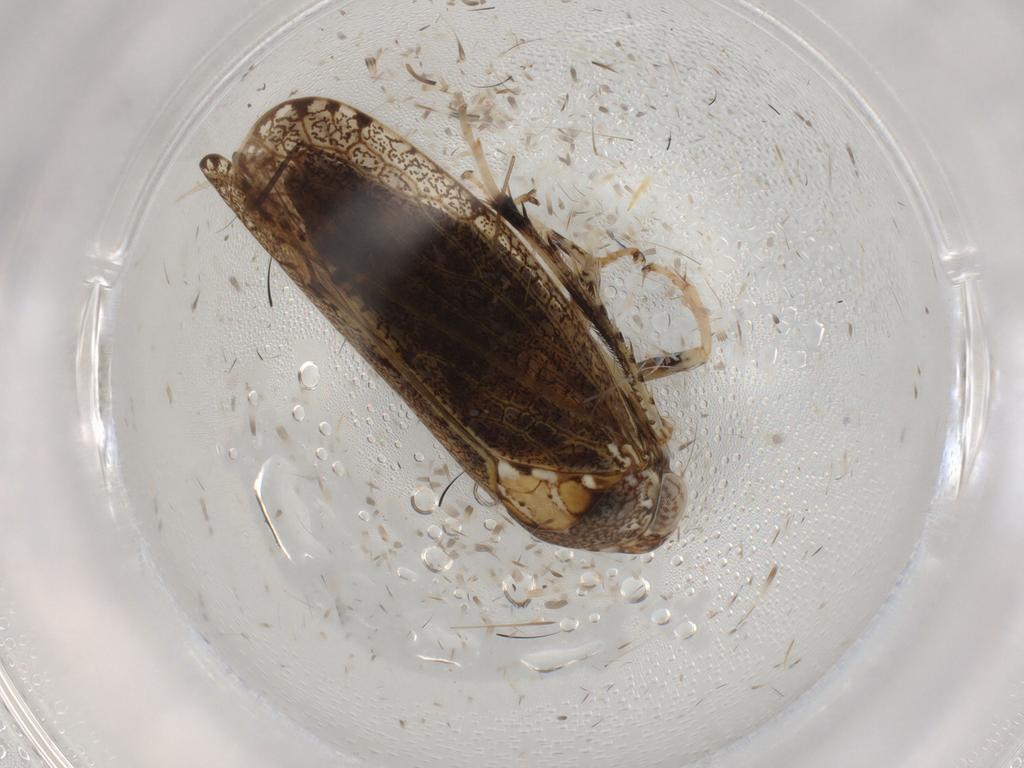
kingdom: Animalia
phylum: Arthropoda
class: Insecta
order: Hemiptera
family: Cicadellidae
